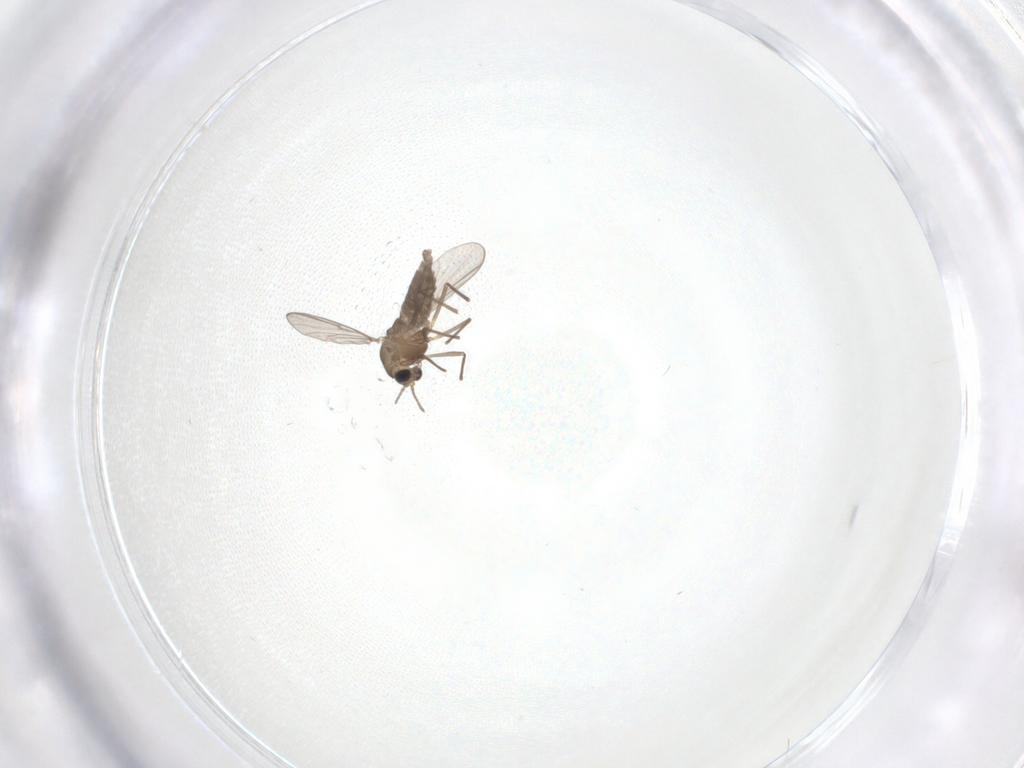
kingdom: Animalia
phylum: Arthropoda
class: Insecta
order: Diptera
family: Chironomidae
